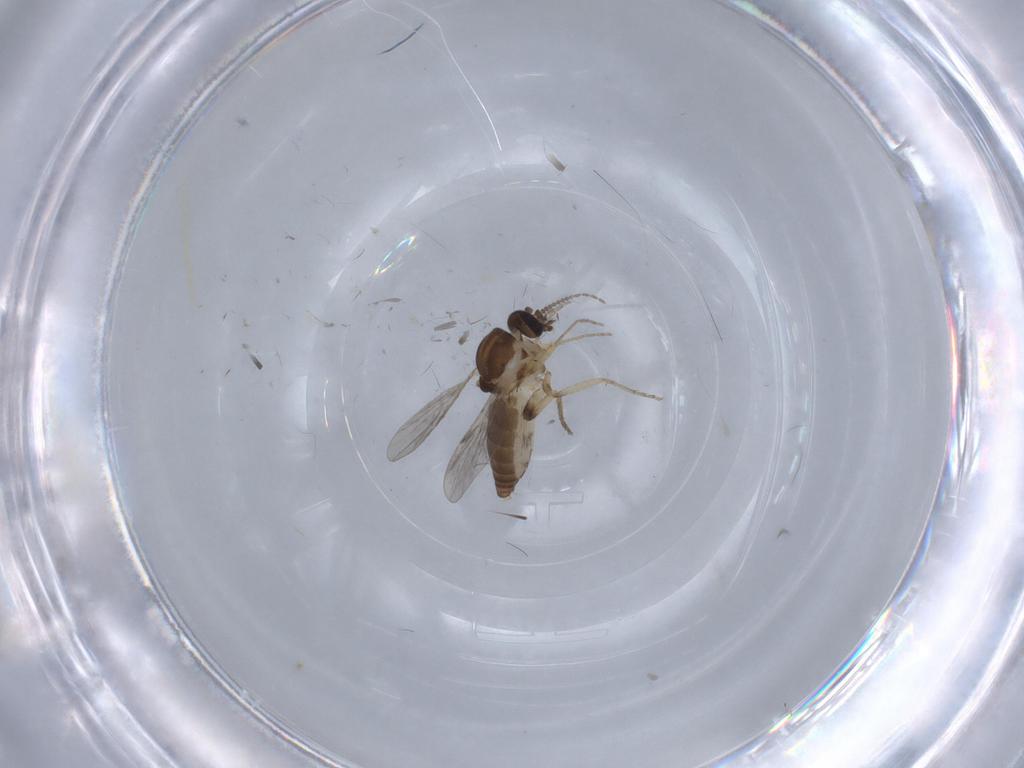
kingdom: Animalia
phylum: Arthropoda
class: Insecta
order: Diptera
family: Ceratopogonidae
